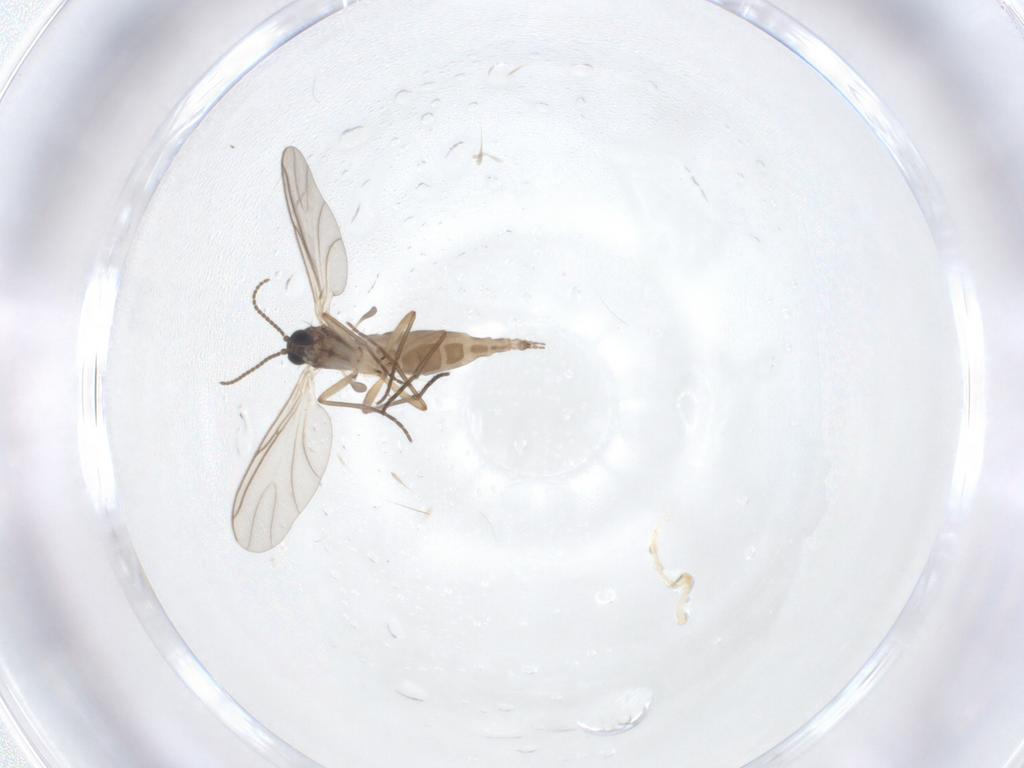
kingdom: Animalia
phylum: Arthropoda
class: Insecta
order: Diptera
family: Sciaridae
